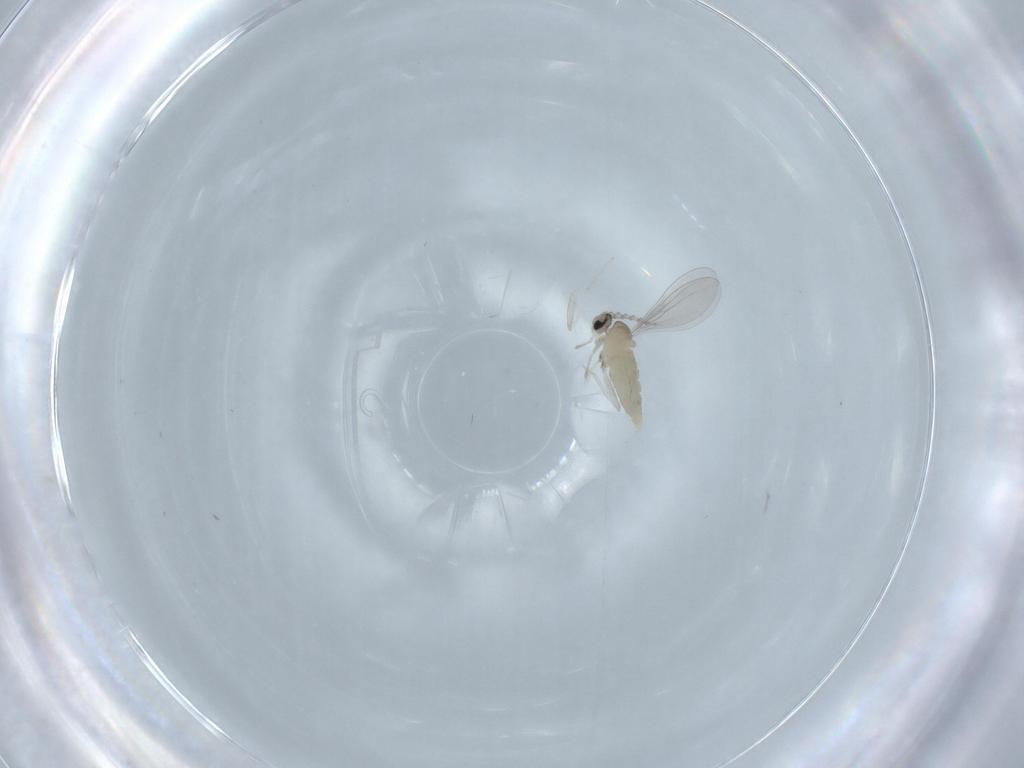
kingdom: Animalia
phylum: Arthropoda
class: Insecta
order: Diptera
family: Cecidomyiidae
